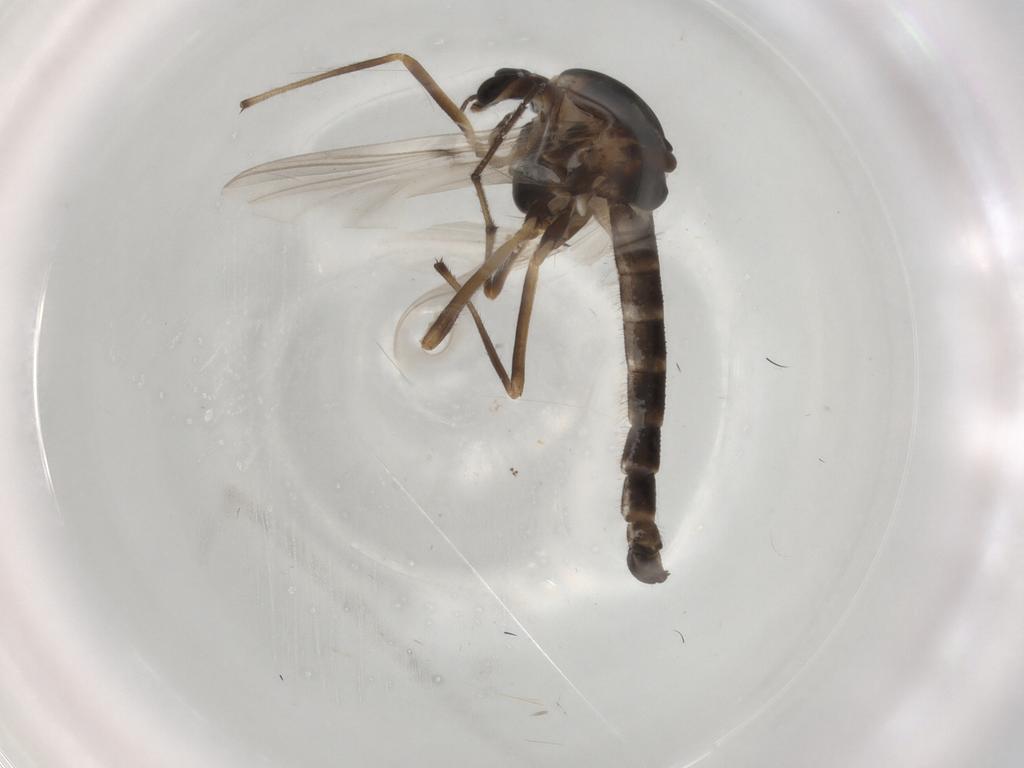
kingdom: Animalia
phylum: Arthropoda
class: Insecta
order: Diptera
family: Chironomidae
